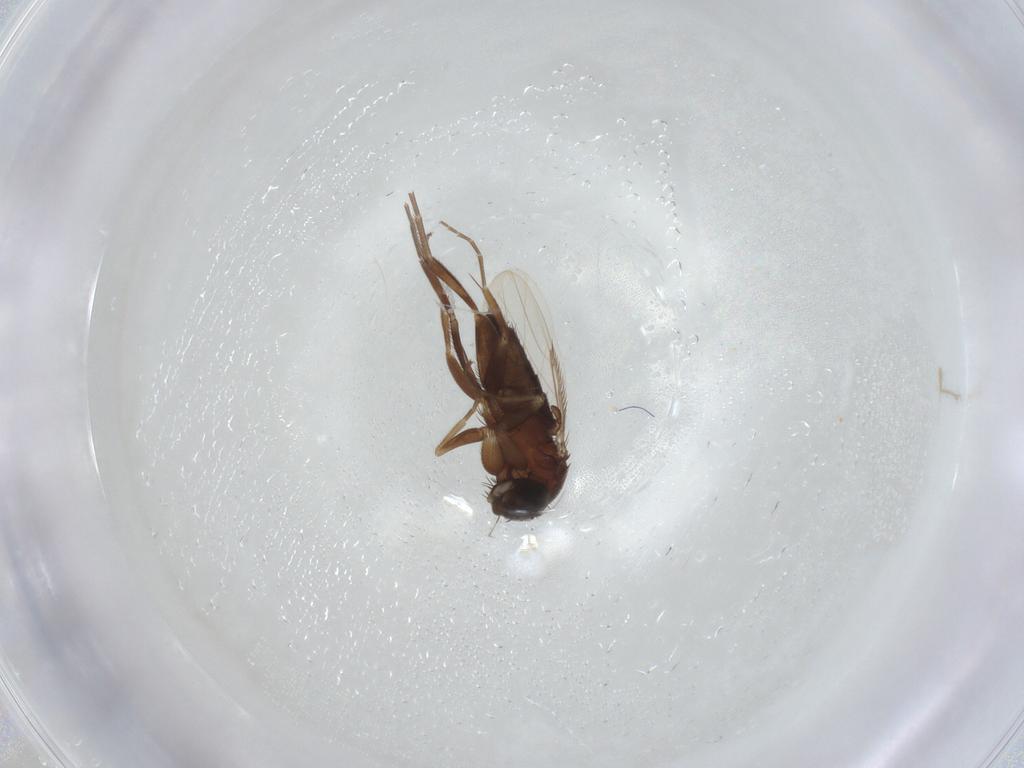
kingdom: Animalia
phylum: Arthropoda
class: Insecta
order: Diptera
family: Phoridae
